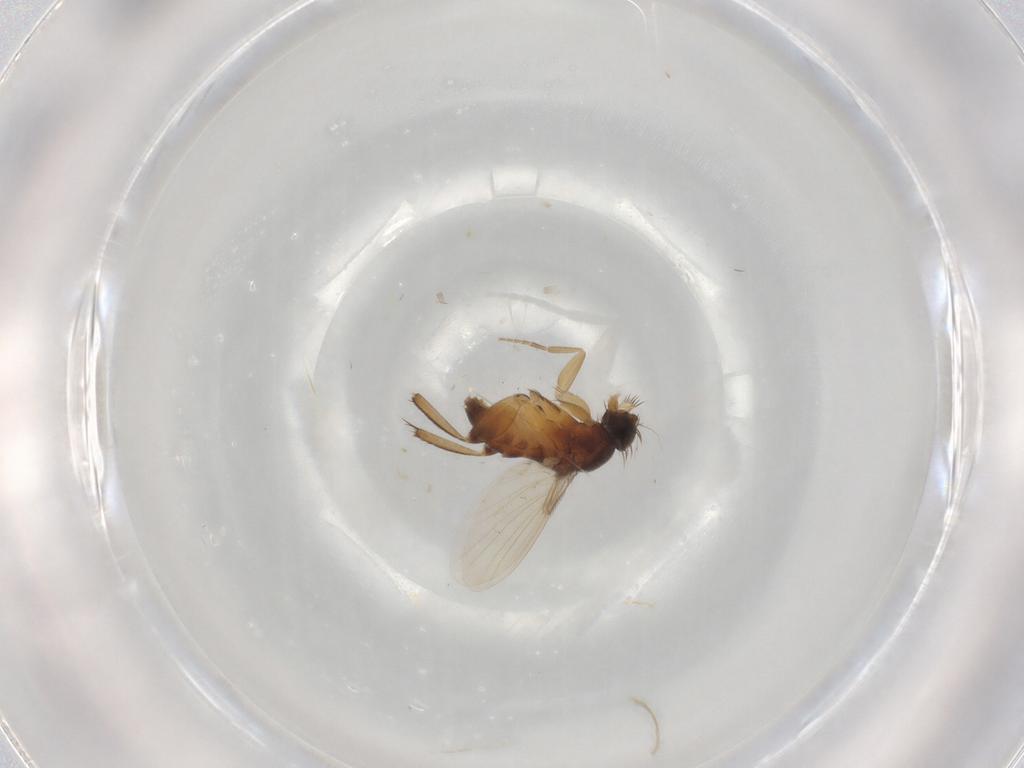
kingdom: Animalia
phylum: Arthropoda
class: Insecta
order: Diptera
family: Phoridae
